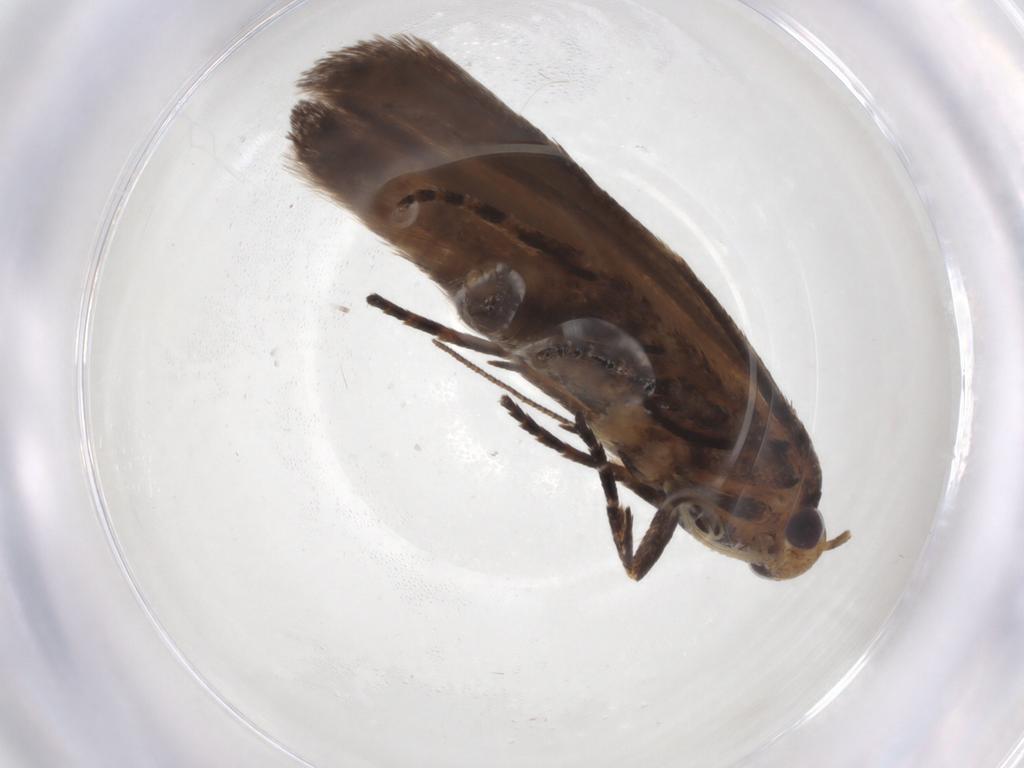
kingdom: Animalia
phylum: Arthropoda
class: Insecta
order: Lepidoptera
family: Gelechiidae
